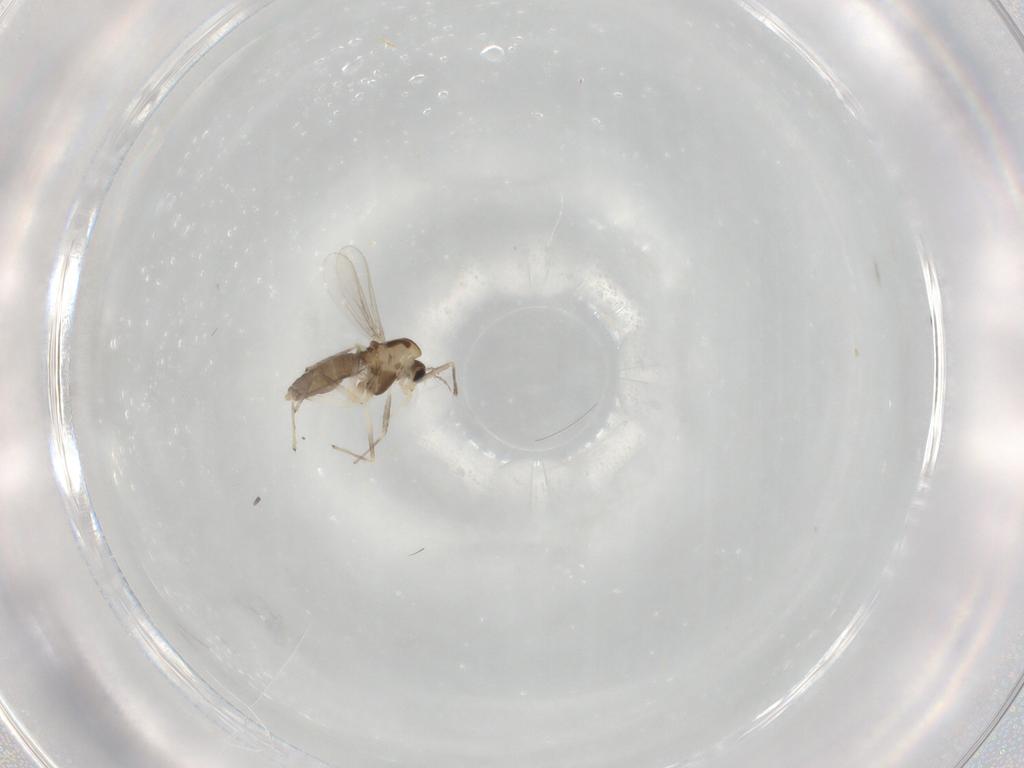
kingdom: Animalia
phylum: Arthropoda
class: Insecta
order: Diptera
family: Chironomidae
